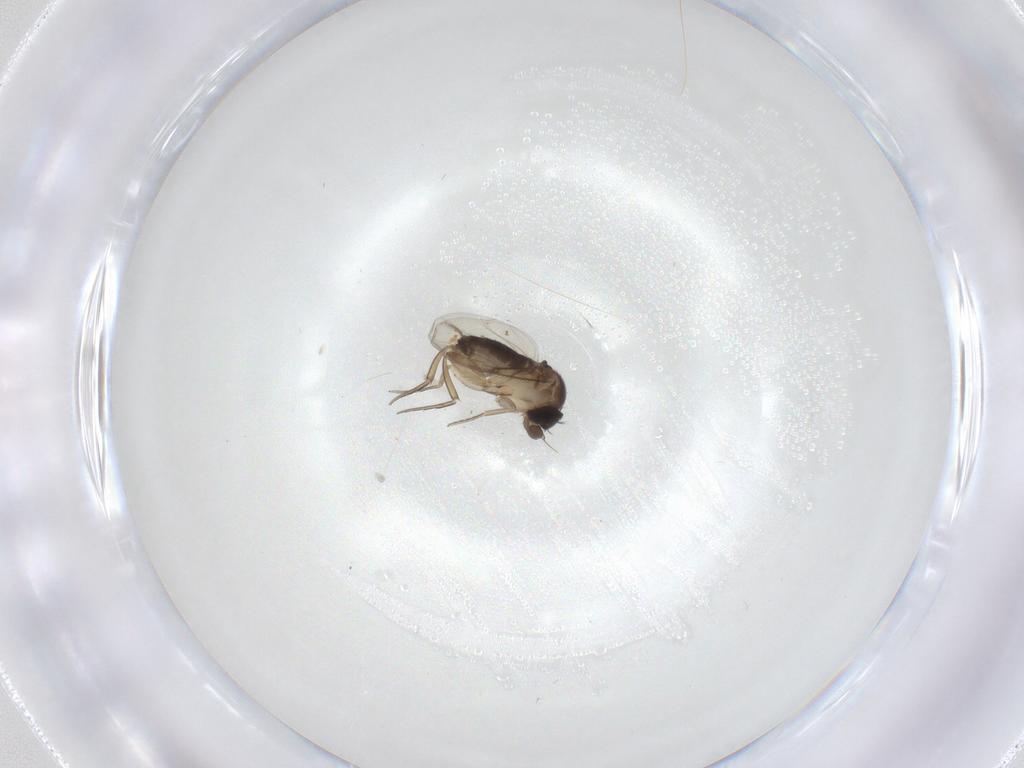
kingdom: Animalia
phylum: Arthropoda
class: Insecta
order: Diptera
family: Phoridae
